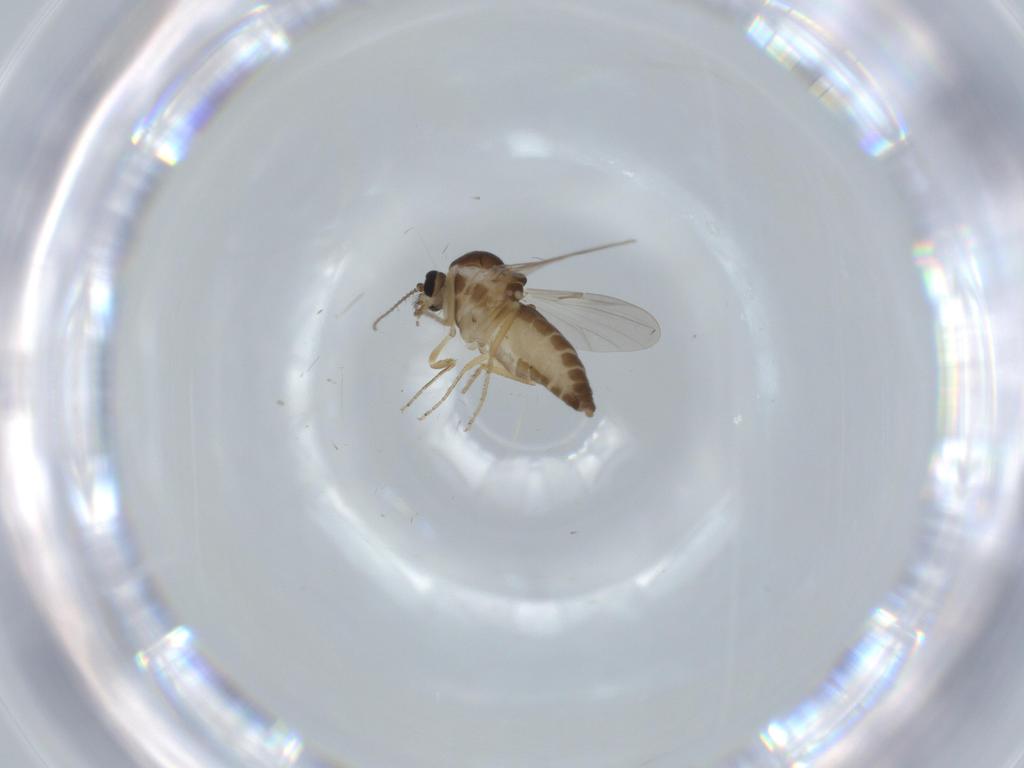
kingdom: Animalia
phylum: Arthropoda
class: Insecta
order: Diptera
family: Ceratopogonidae
